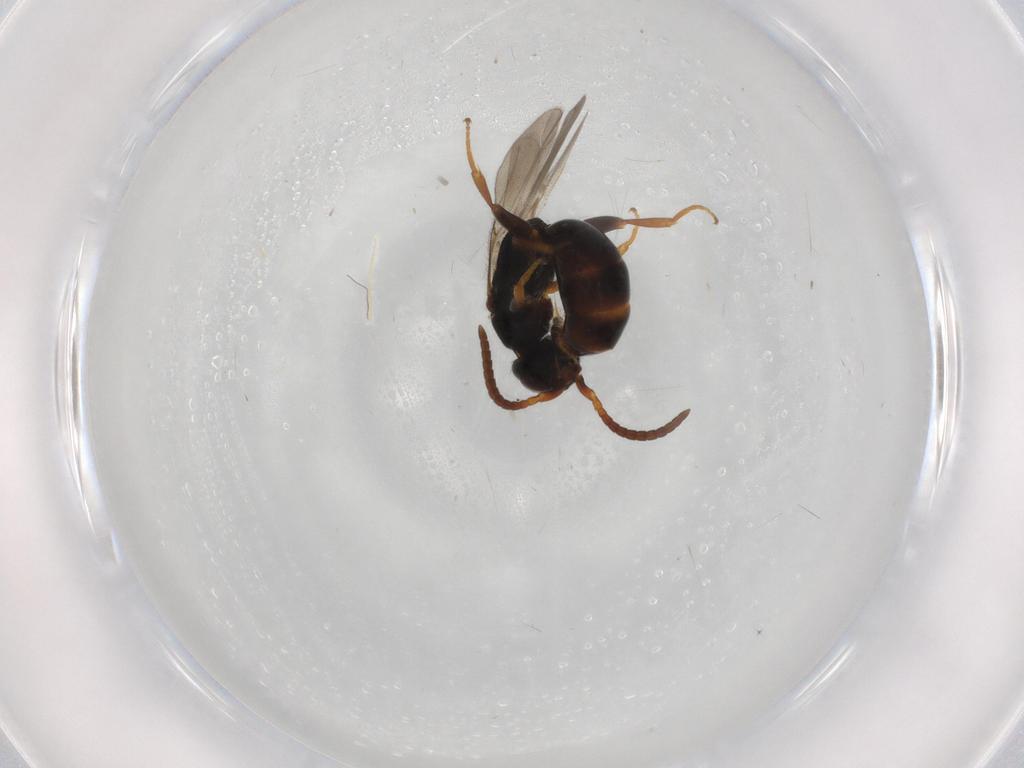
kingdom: Animalia
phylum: Arthropoda
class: Insecta
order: Hymenoptera
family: Bethylidae
